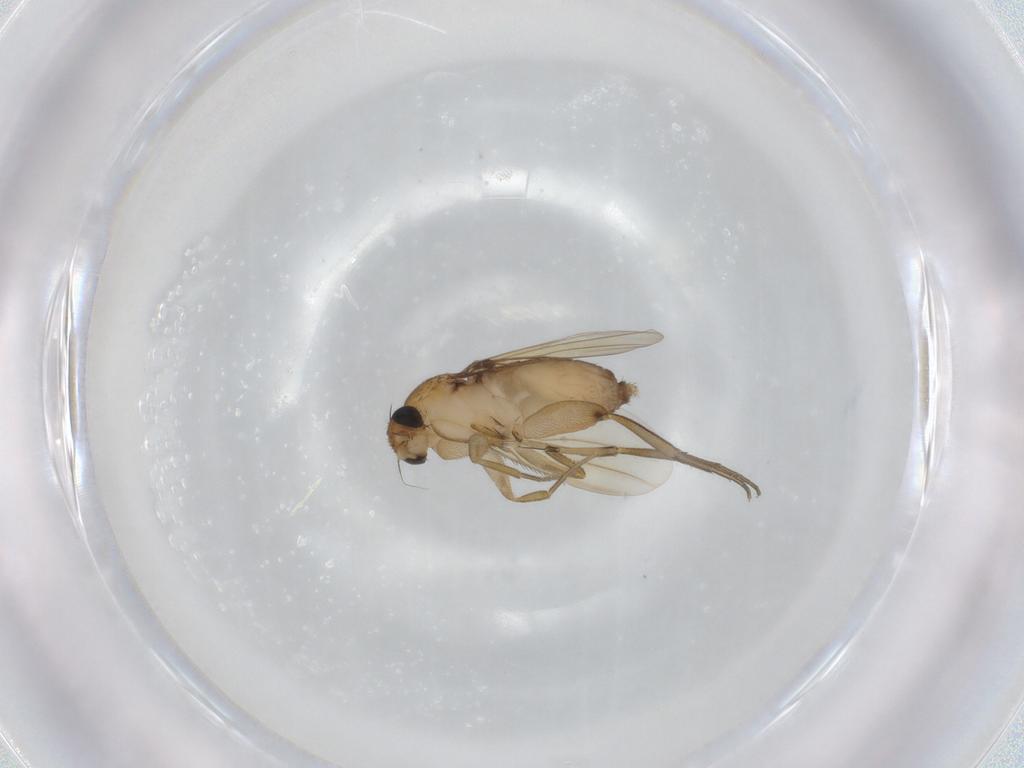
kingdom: Animalia
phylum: Arthropoda
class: Insecta
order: Diptera
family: Phoridae
